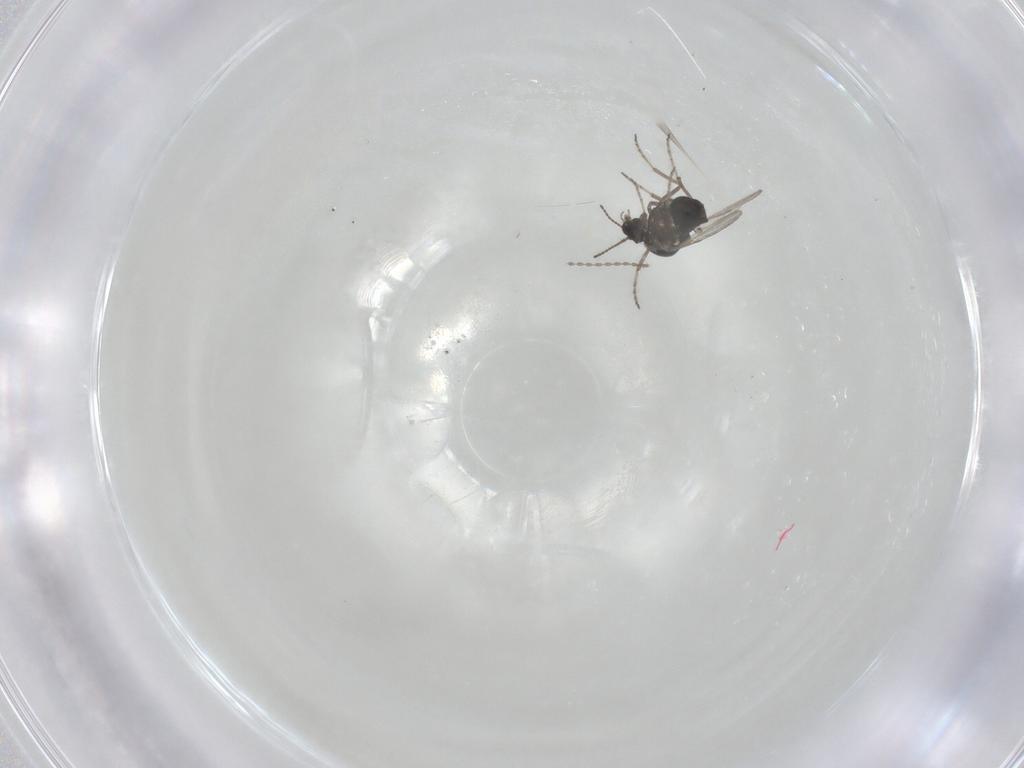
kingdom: Animalia
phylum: Arthropoda
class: Insecta
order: Diptera
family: Ceratopogonidae
